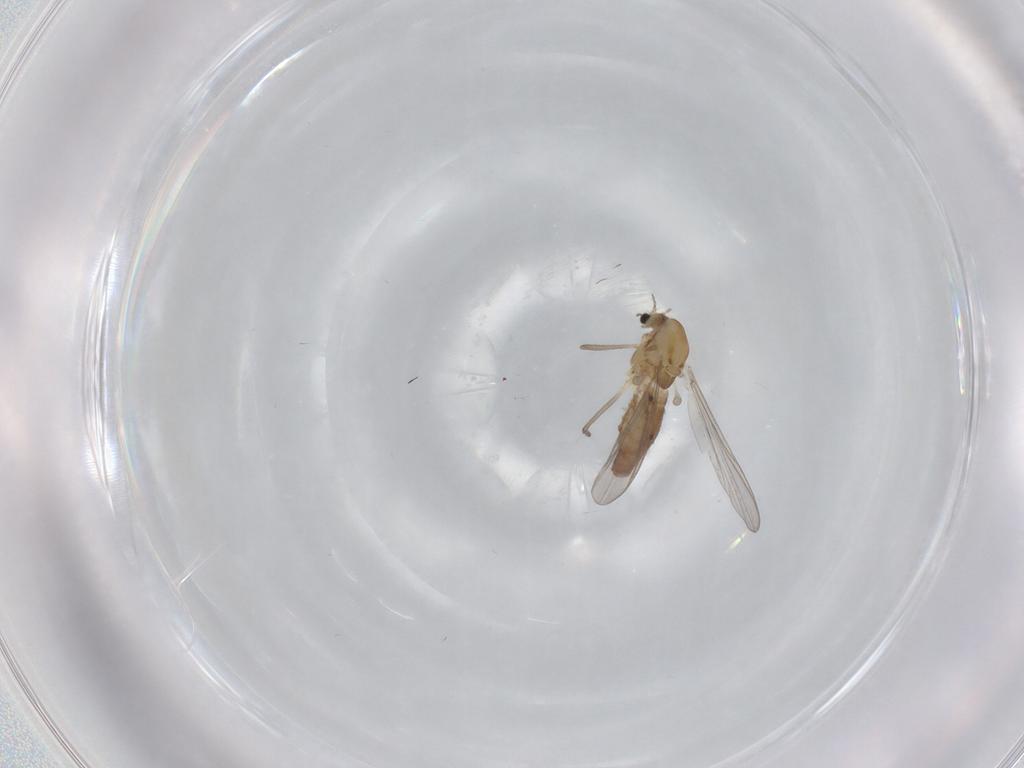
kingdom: Animalia
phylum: Arthropoda
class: Insecta
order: Diptera
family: Chironomidae
